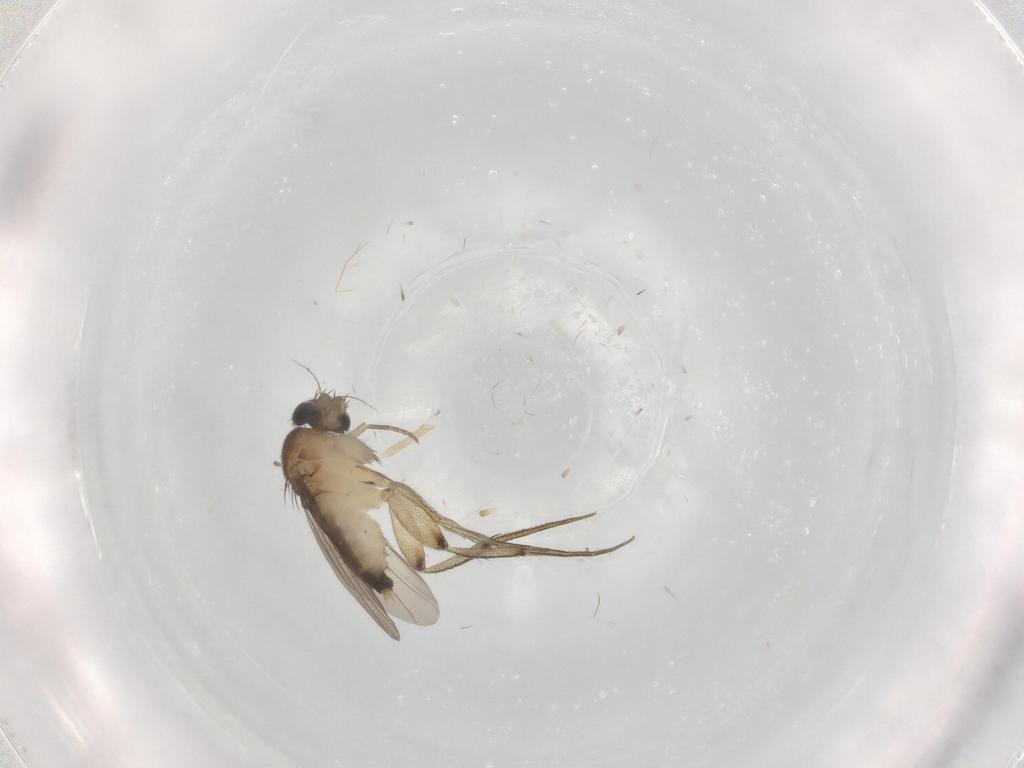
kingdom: Animalia
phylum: Arthropoda
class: Insecta
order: Diptera
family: Phoridae
